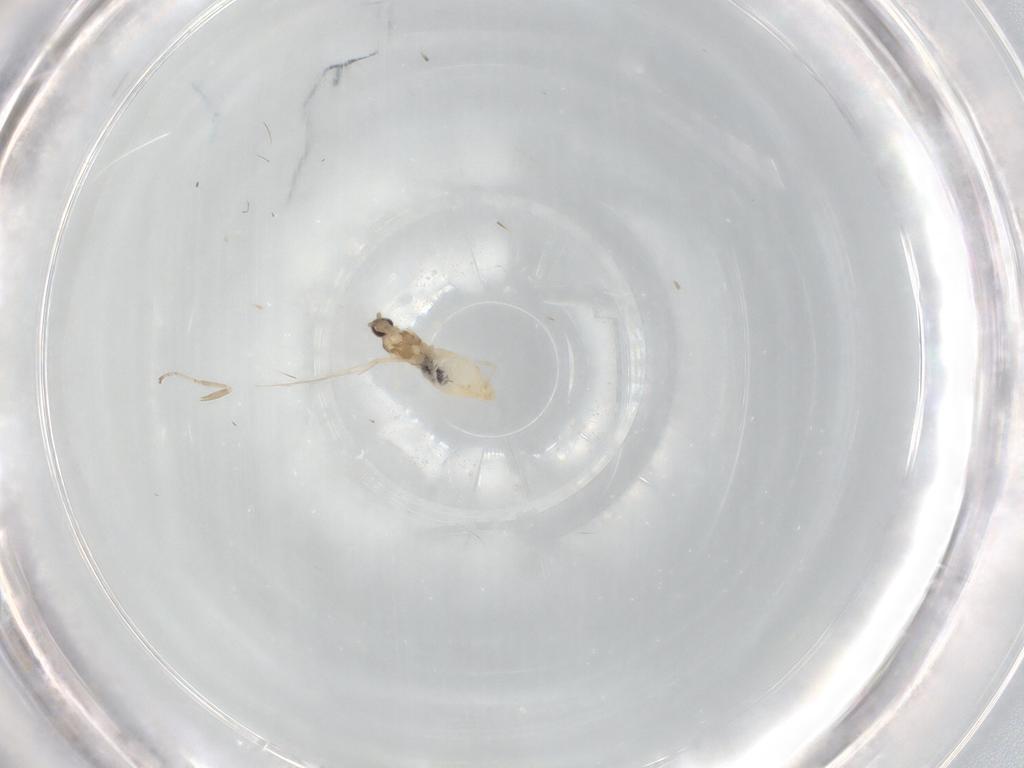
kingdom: Animalia
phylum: Arthropoda
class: Insecta
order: Diptera
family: Cecidomyiidae
